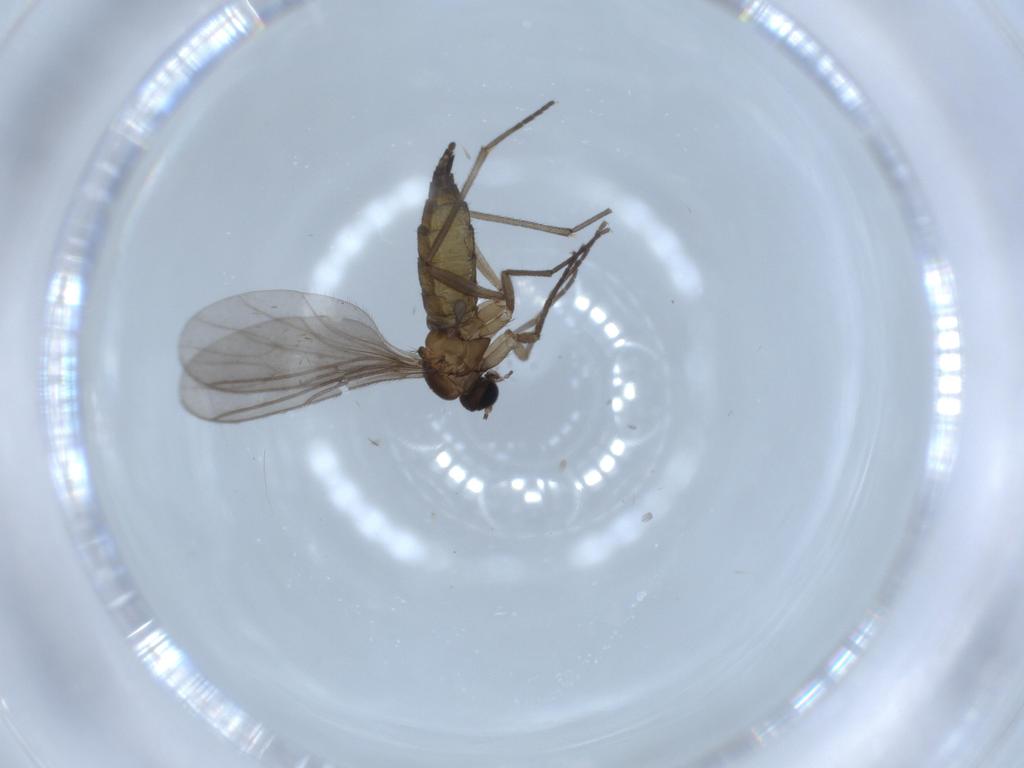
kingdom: Animalia
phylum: Arthropoda
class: Insecta
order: Diptera
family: Sciaridae
